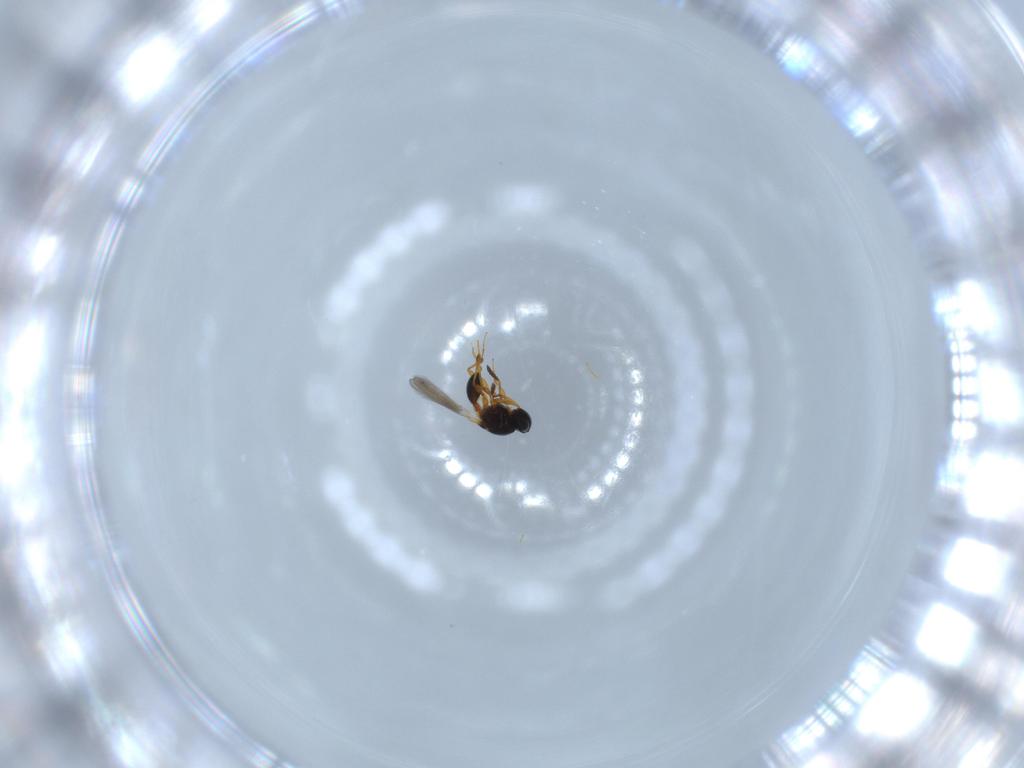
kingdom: Animalia
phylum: Arthropoda
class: Insecta
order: Hymenoptera
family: Platygastridae
